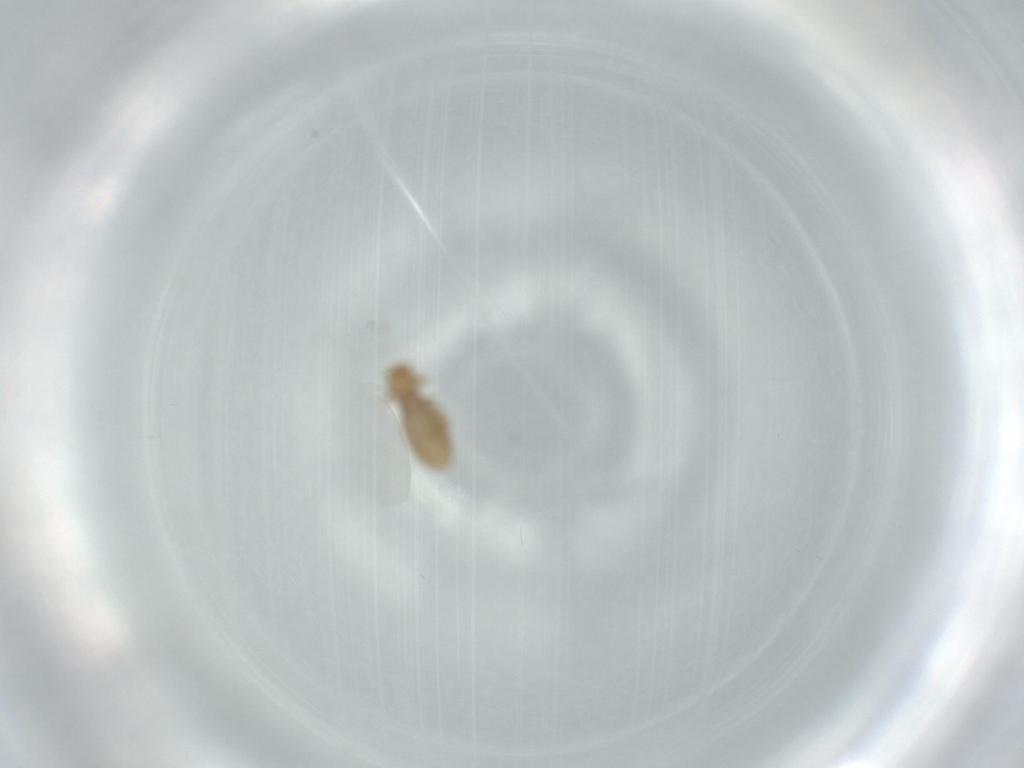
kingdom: Animalia
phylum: Arthropoda
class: Insecta
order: Psocodea
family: Liposcelididae
